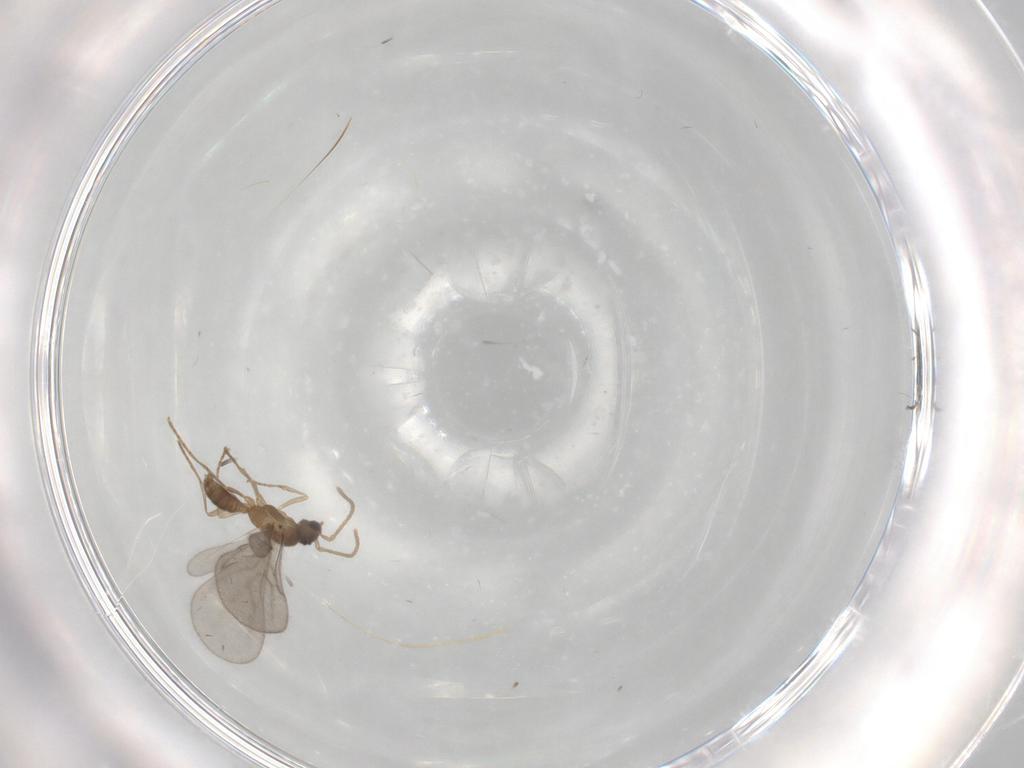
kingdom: Animalia
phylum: Arthropoda
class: Insecta
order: Hymenoptera
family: Formicidae
